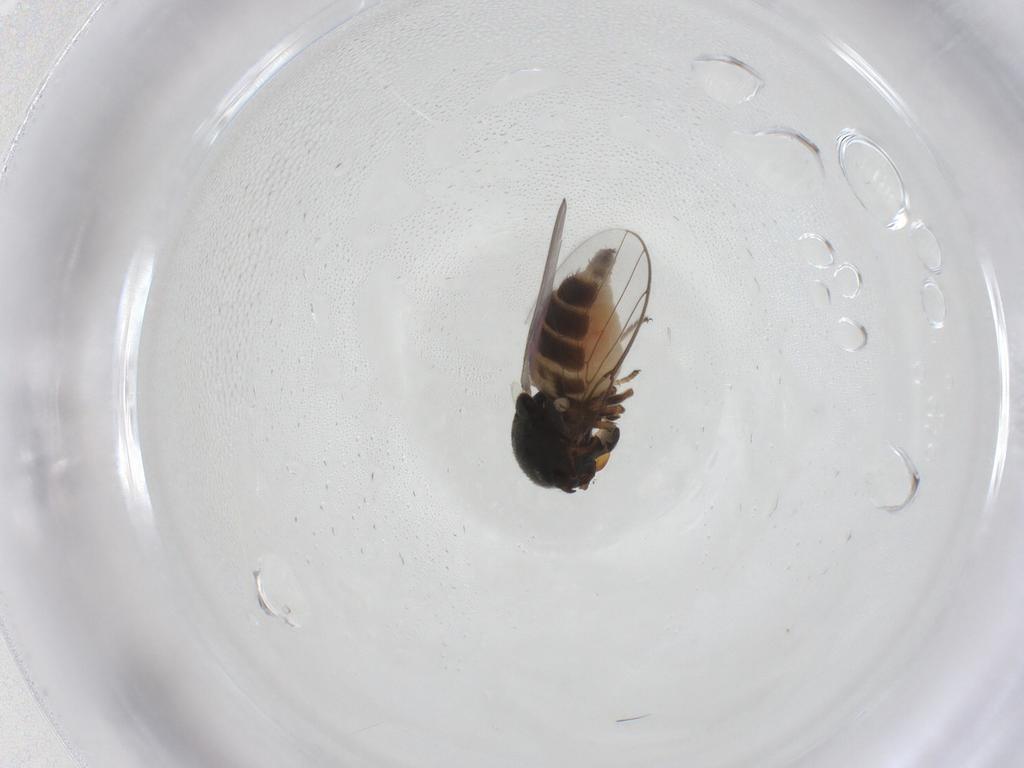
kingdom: Animalia
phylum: Arthropoda
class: Insecta
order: Diptera
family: Chloropidae
